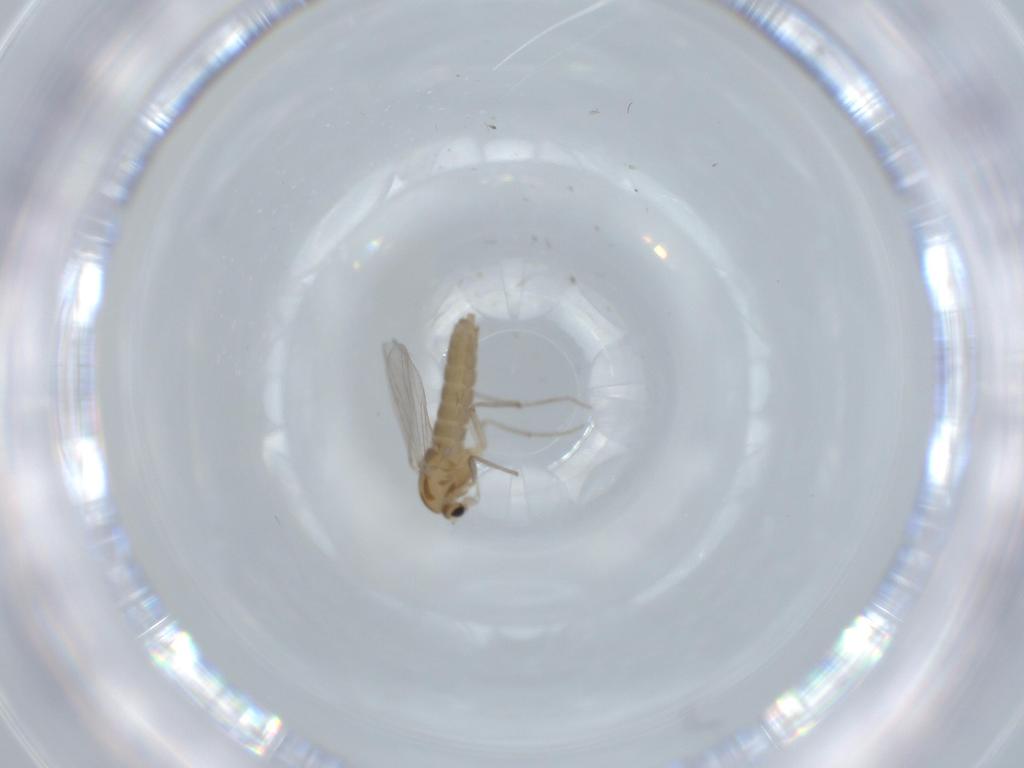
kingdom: Animalia
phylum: Arthropoda
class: Insecta
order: Diptera
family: Chironomidae
